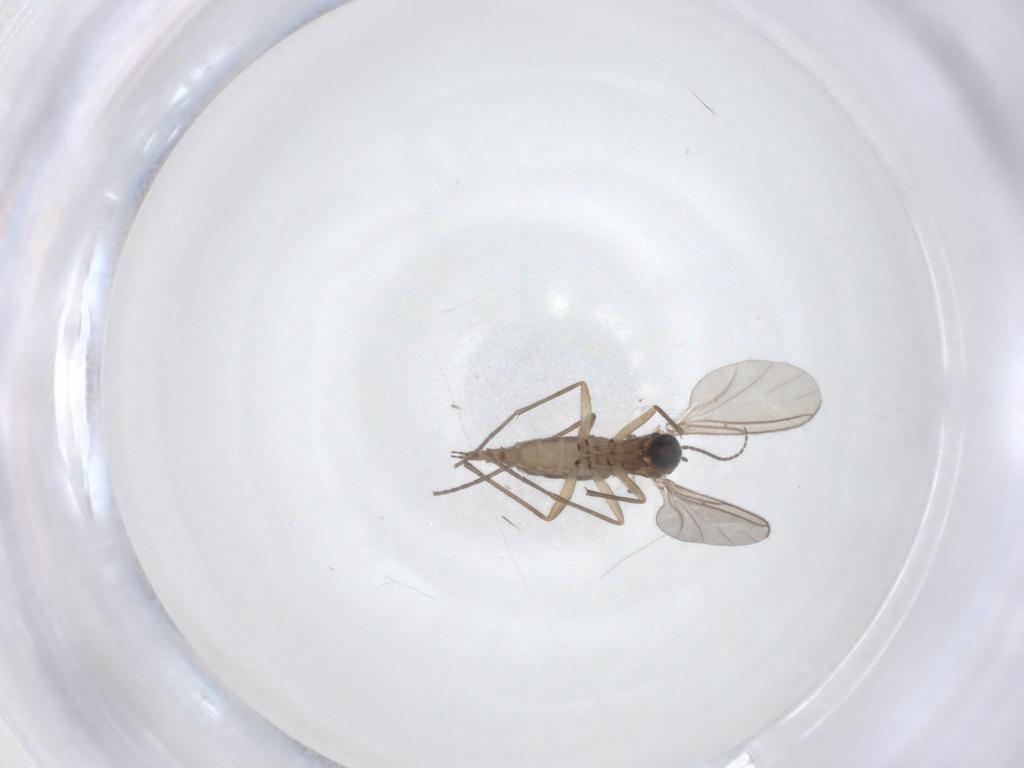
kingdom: Animalia
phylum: Arthropoda
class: Insecta
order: Diptera
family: Sciaridae
